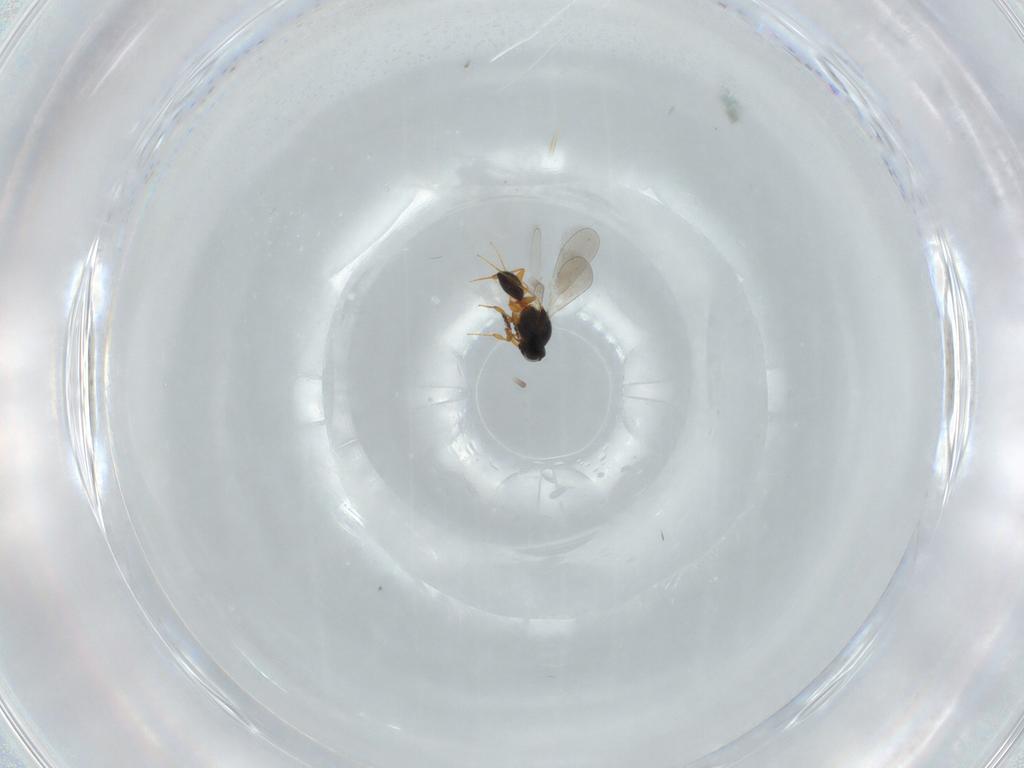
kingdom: Animalia
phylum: Arthropoda
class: Insecta
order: Hymenoptera
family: Platygastridae
